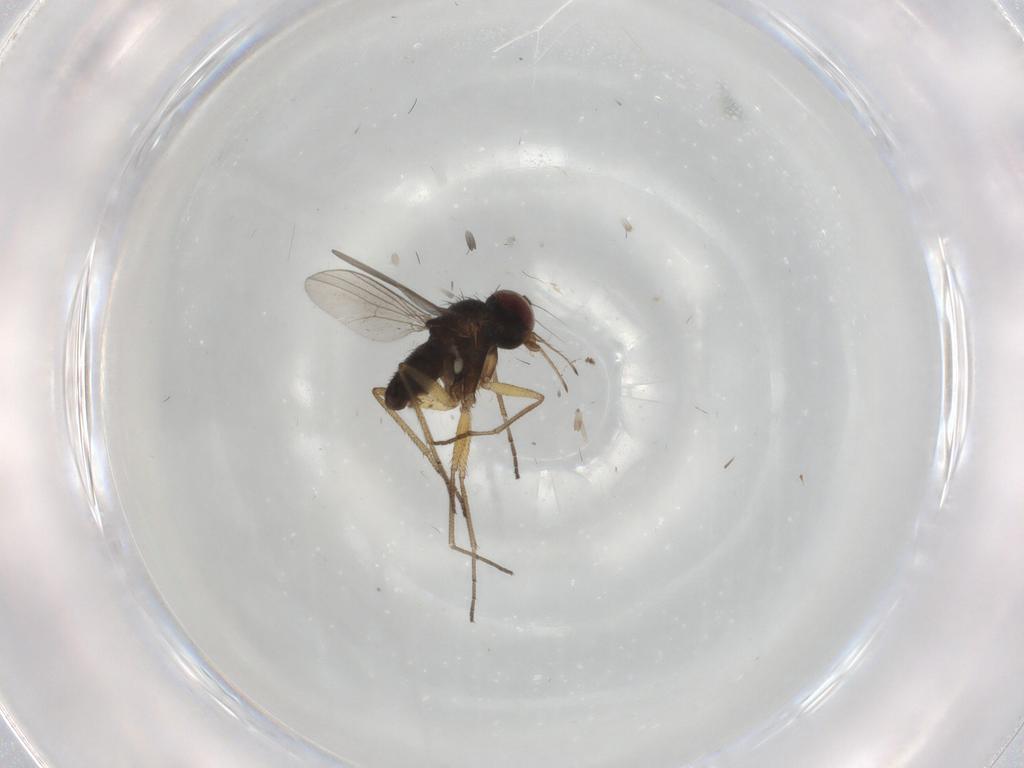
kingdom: Animalia
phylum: Arthropoda
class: Insecta
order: Diptera
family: Dolichopodidae
